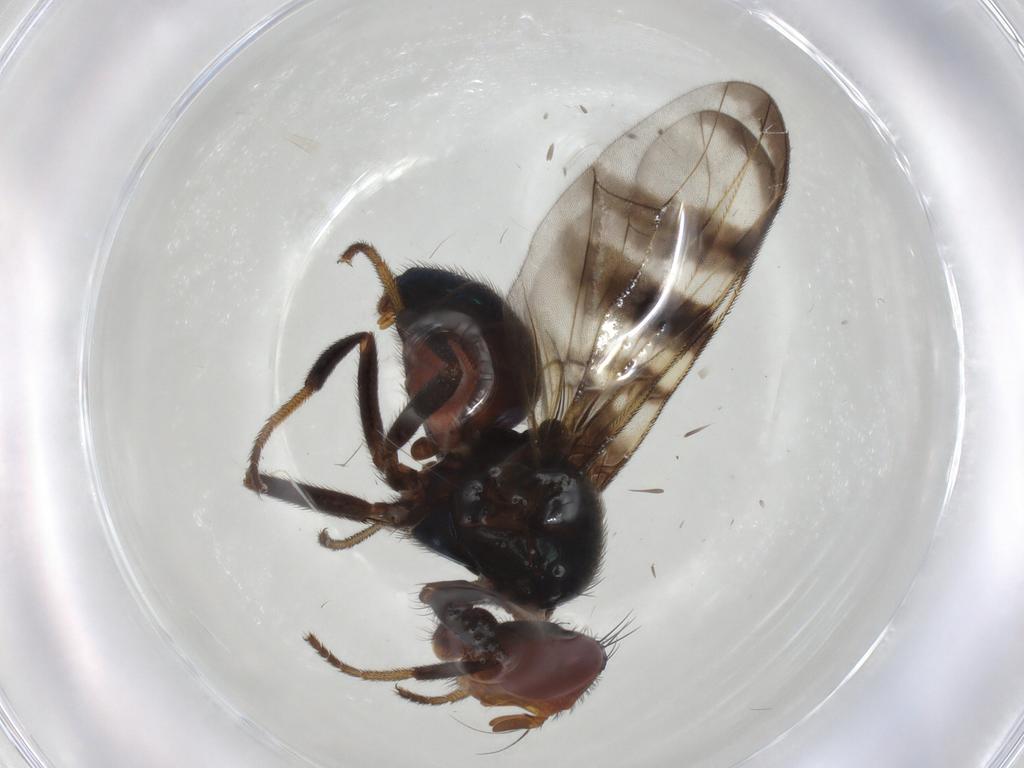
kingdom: Animalia
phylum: Arthropoda
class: Insecta
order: Diptera
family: Platystomatidae
